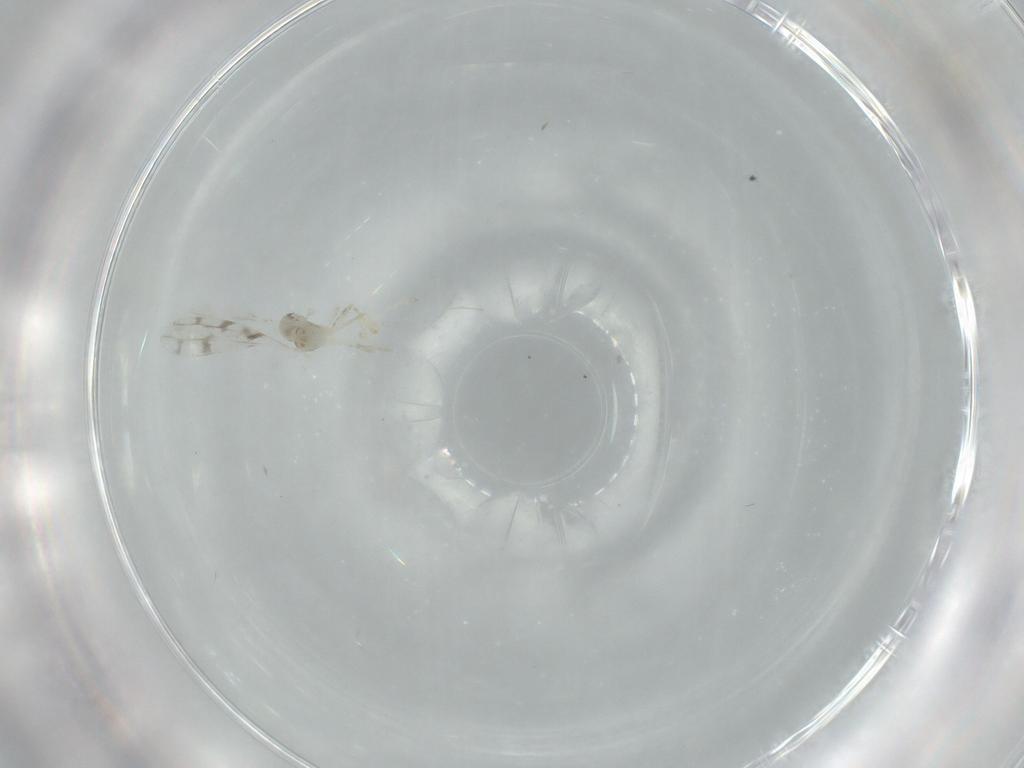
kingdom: Animalia
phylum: Arthropoda
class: Insecta
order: Diptera
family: Cecidomyiidae
